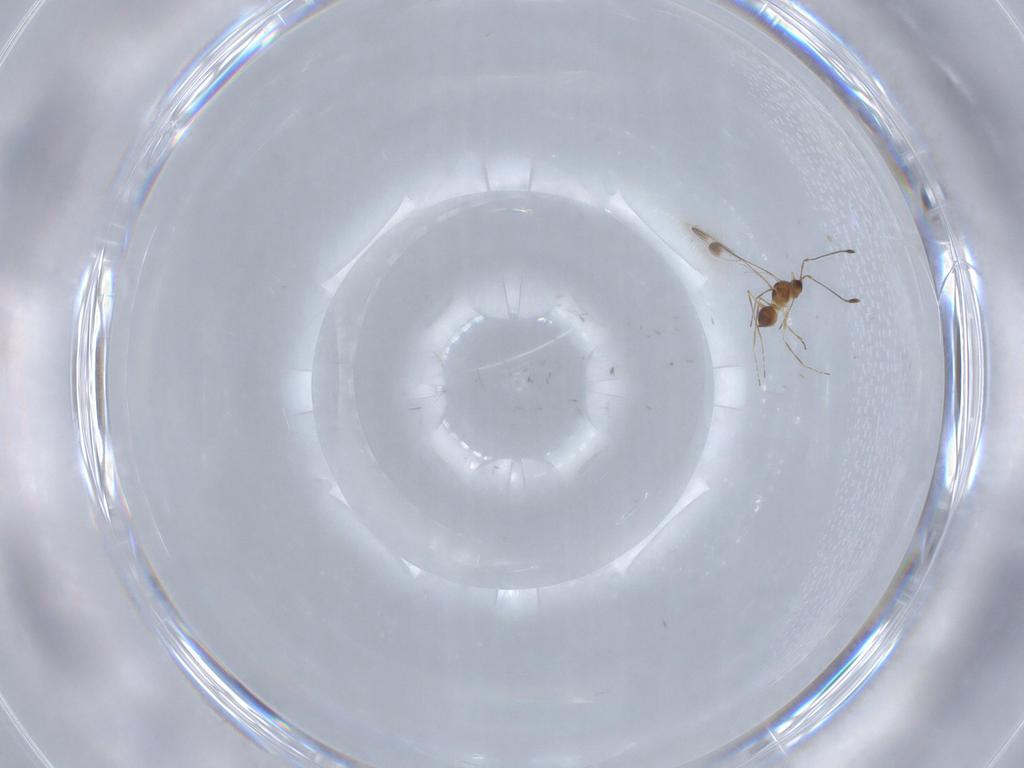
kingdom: Animalia
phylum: Arthropoda
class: Insecta
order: Hymenoptera
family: Mymaridae
